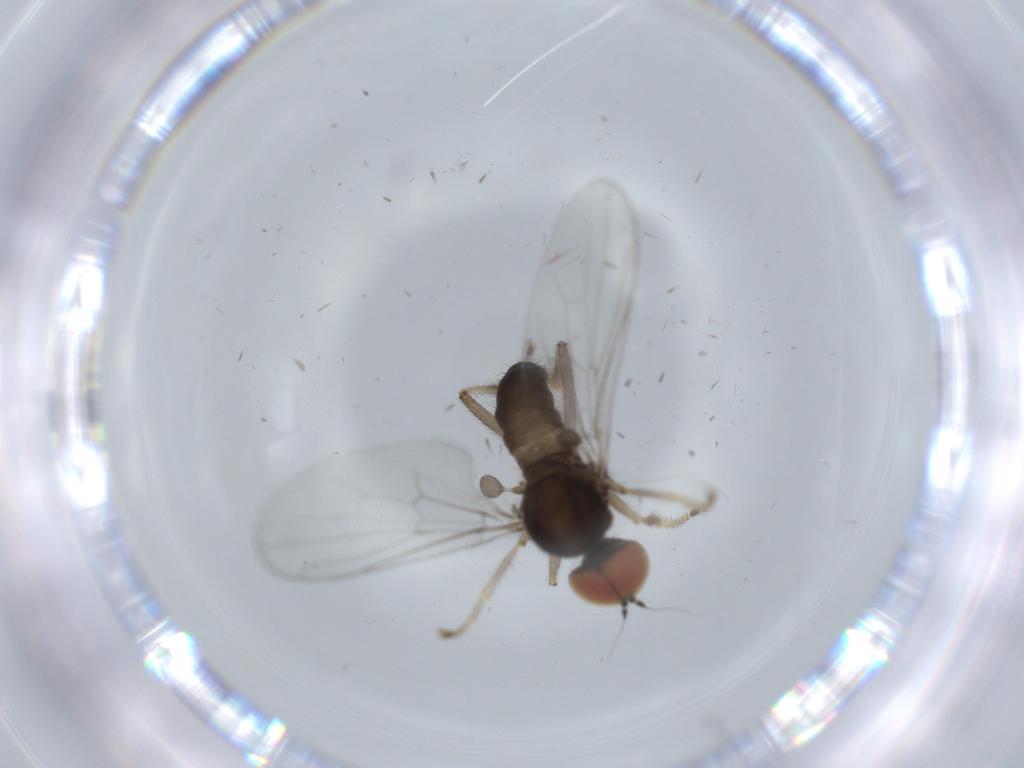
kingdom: Animalia
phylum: Arthropoda
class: Insecta
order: Diptera
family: Hybotidae
